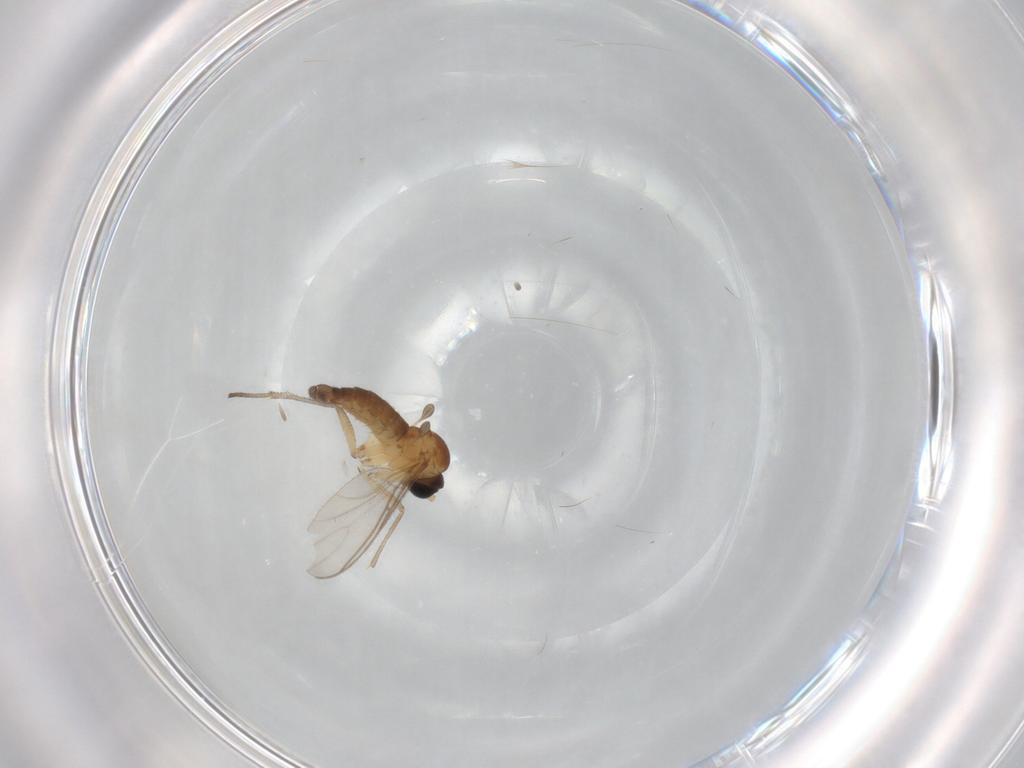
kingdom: Animalia
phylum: Arthropoda
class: Insecta
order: Diptera
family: Sciaridae
